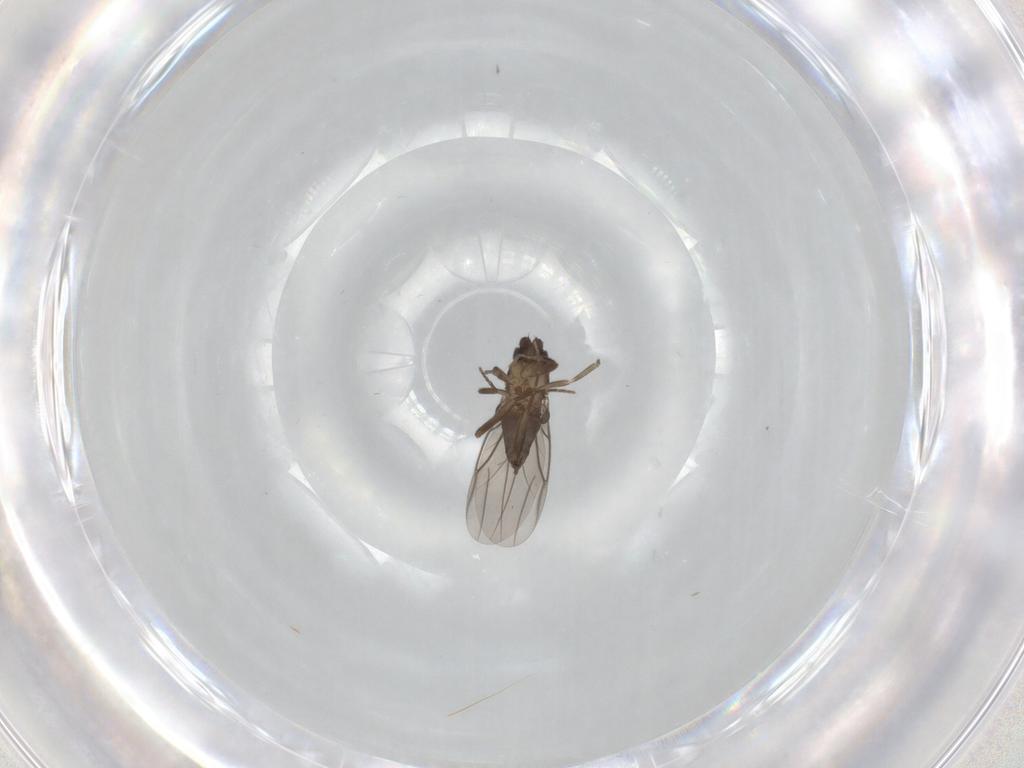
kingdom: Animalia
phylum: Arthropoda
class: Insecta
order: Diptera
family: Phoridae
